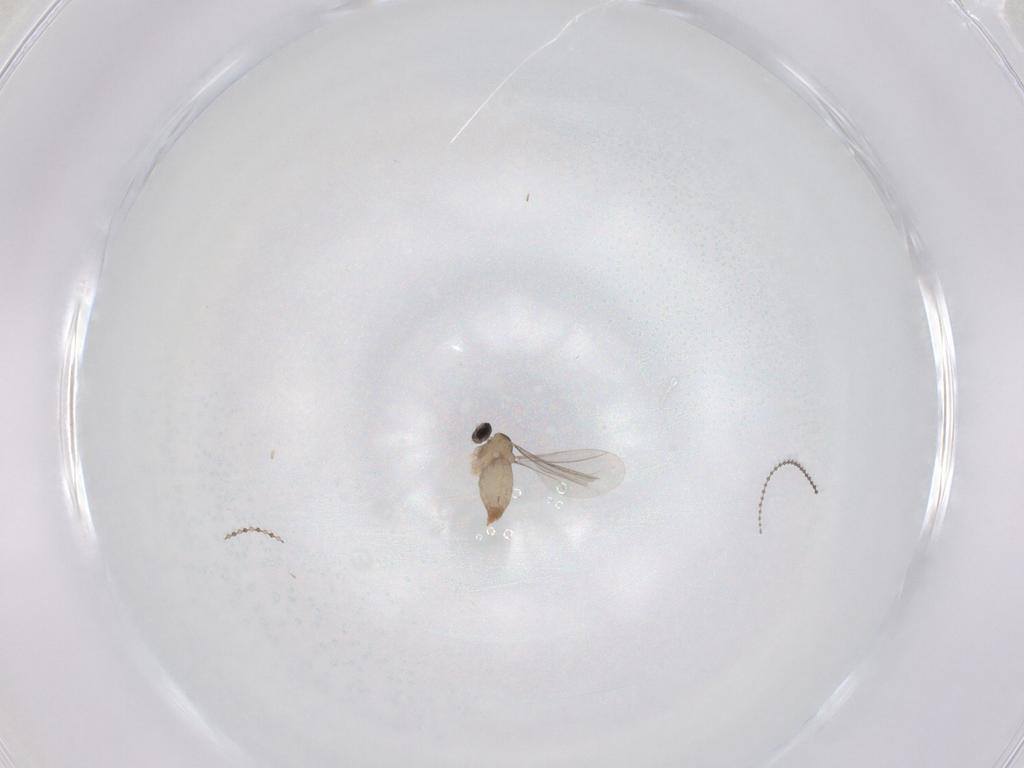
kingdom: Animalia
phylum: Arthropoda
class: Insecta
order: Diptera
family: Cecidomyiidae
